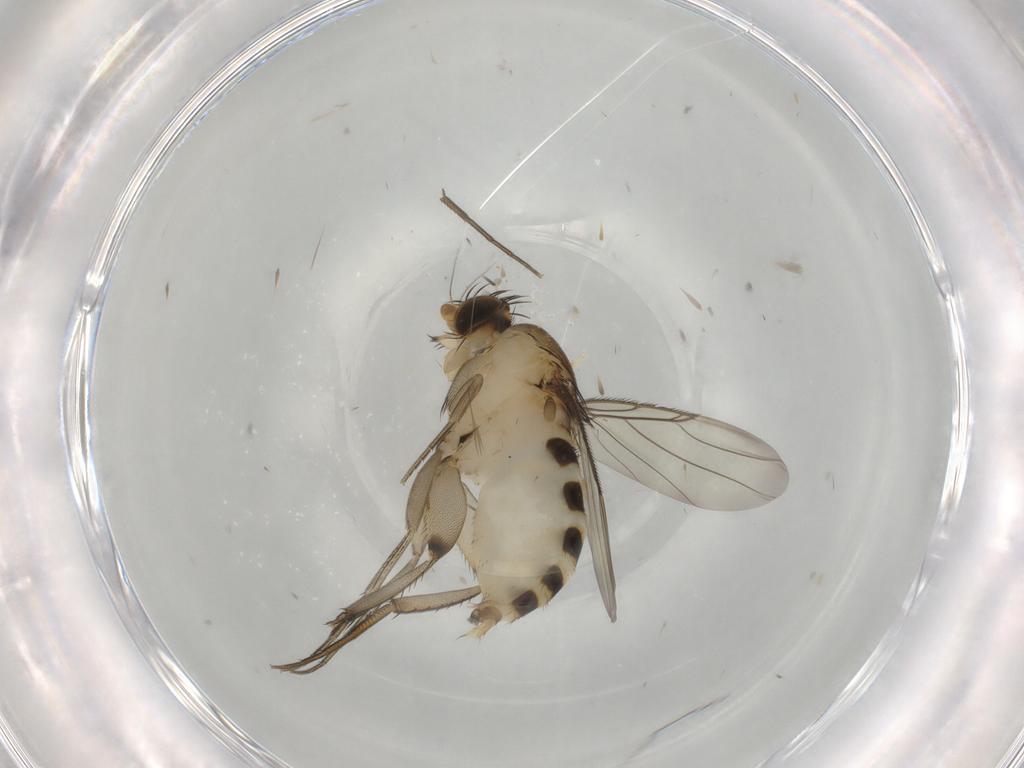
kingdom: Animalia
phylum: Arthropoda
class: Insecta
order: Diptera
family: Phoridae
